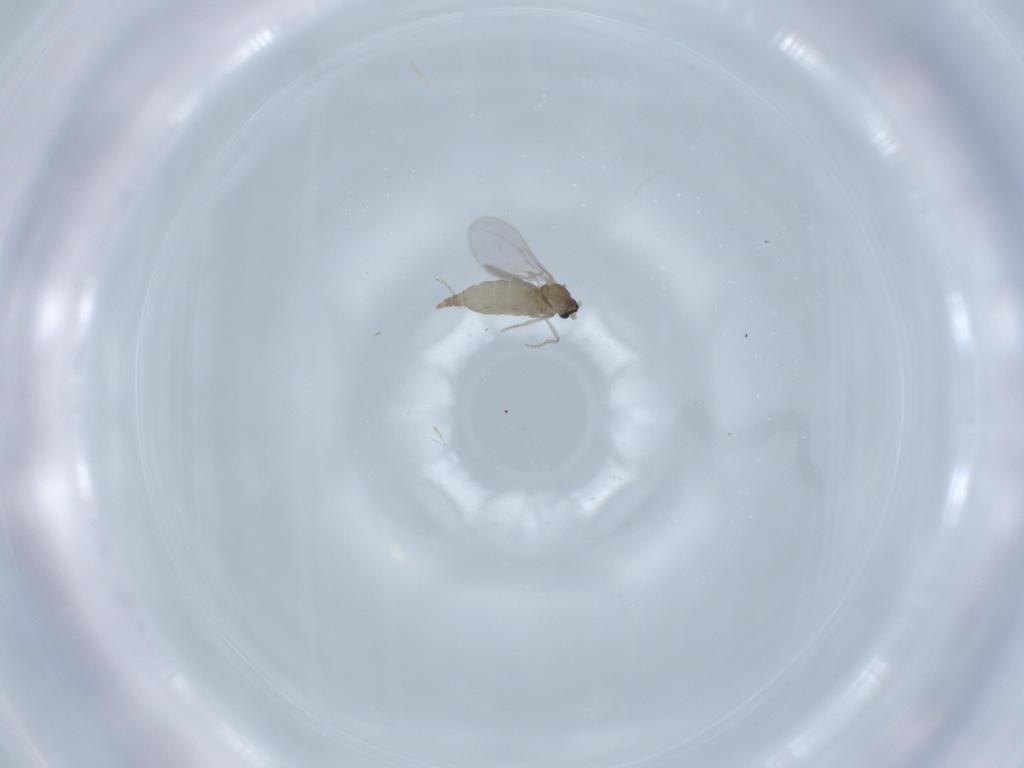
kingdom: Animalia
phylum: Arthropoda
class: Insecta
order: Diptera
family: Cecidomyiidae
